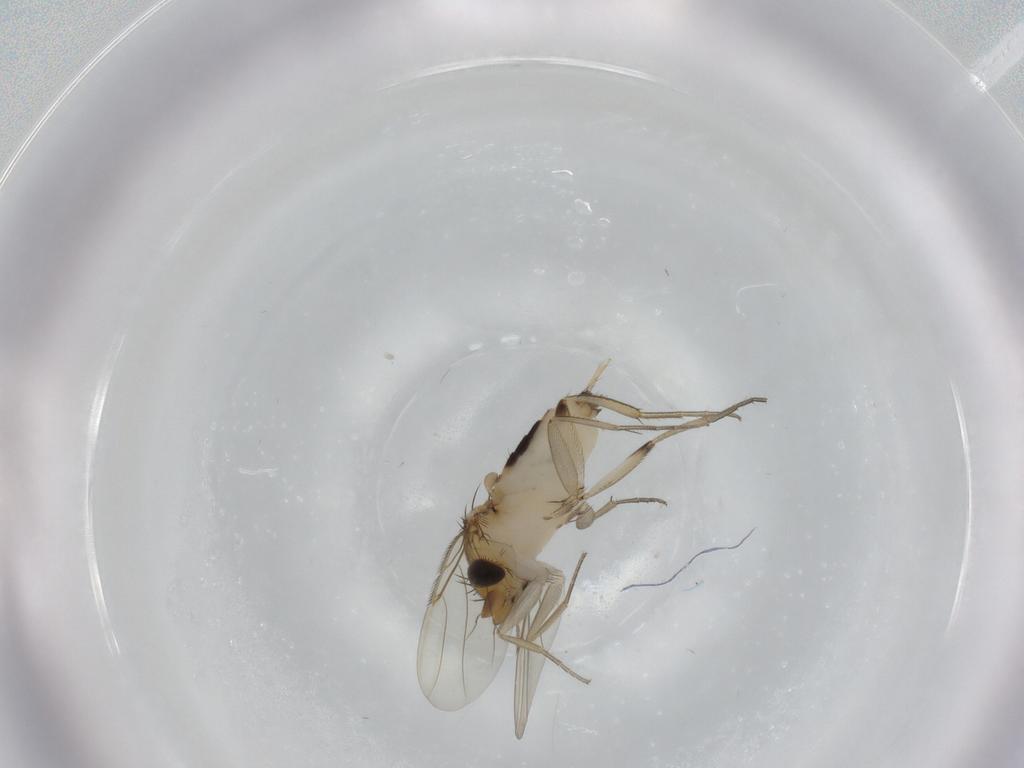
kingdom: Animalia
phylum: Arthropoda
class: Insecta
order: Diptera
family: Phoridae
